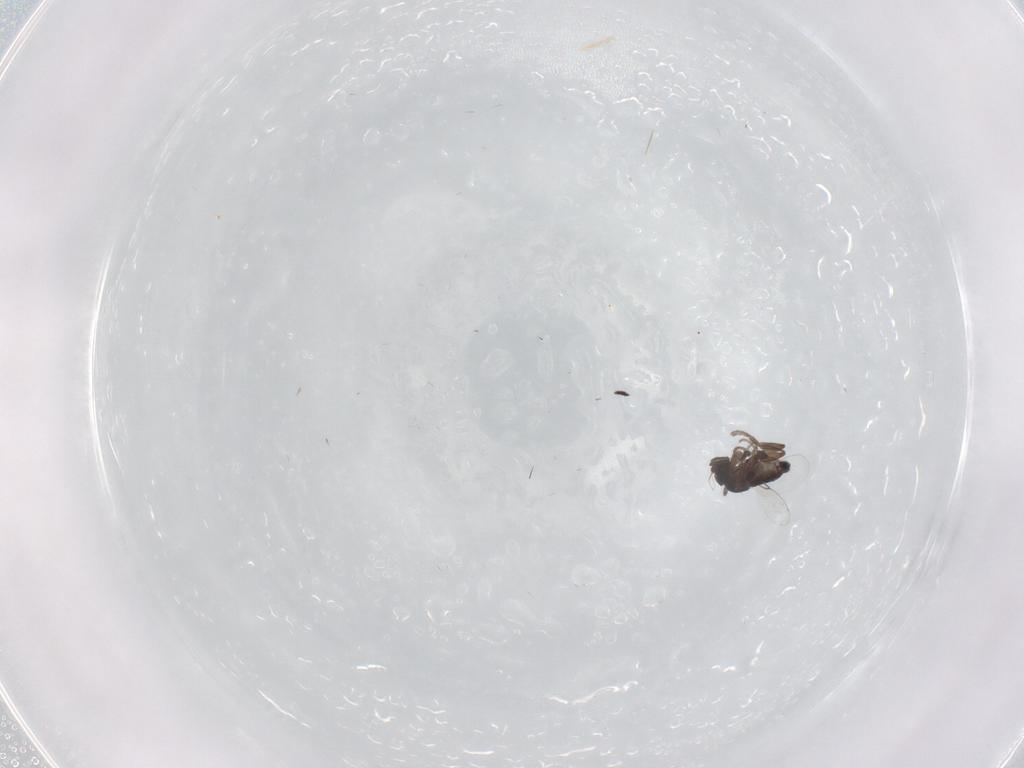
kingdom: Animalia
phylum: Arthropoda
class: Insecta
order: Diptera
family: Phoridae
